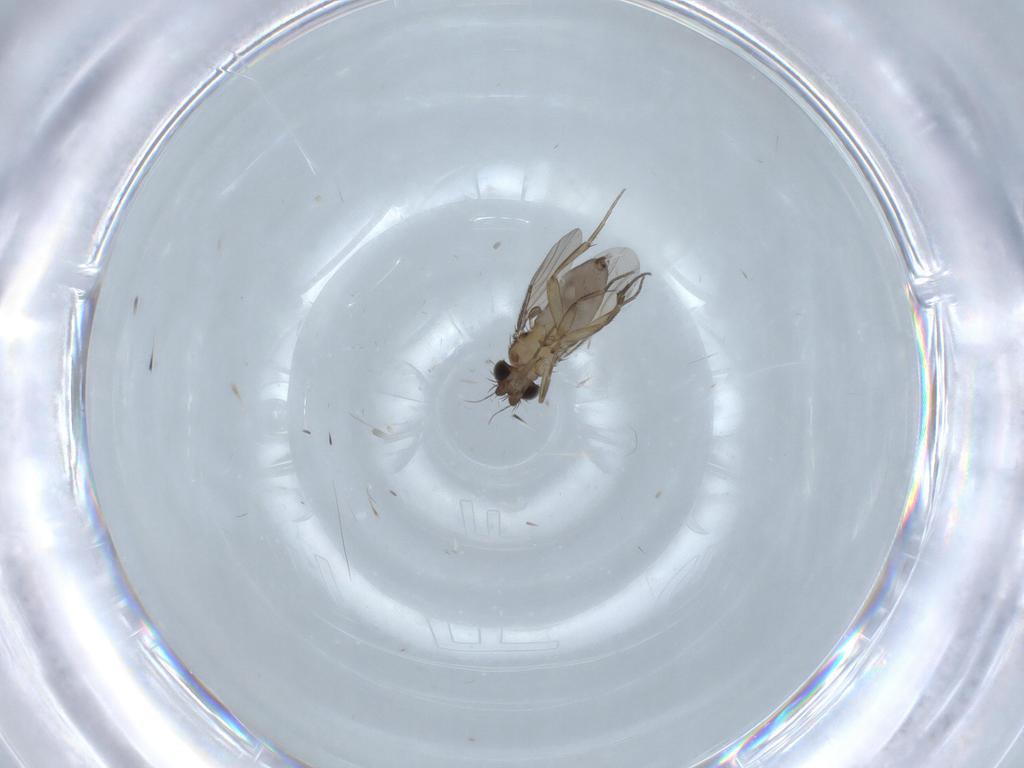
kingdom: Animalia
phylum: Arthropoda
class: Insecta
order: Diptera
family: Phoridae
